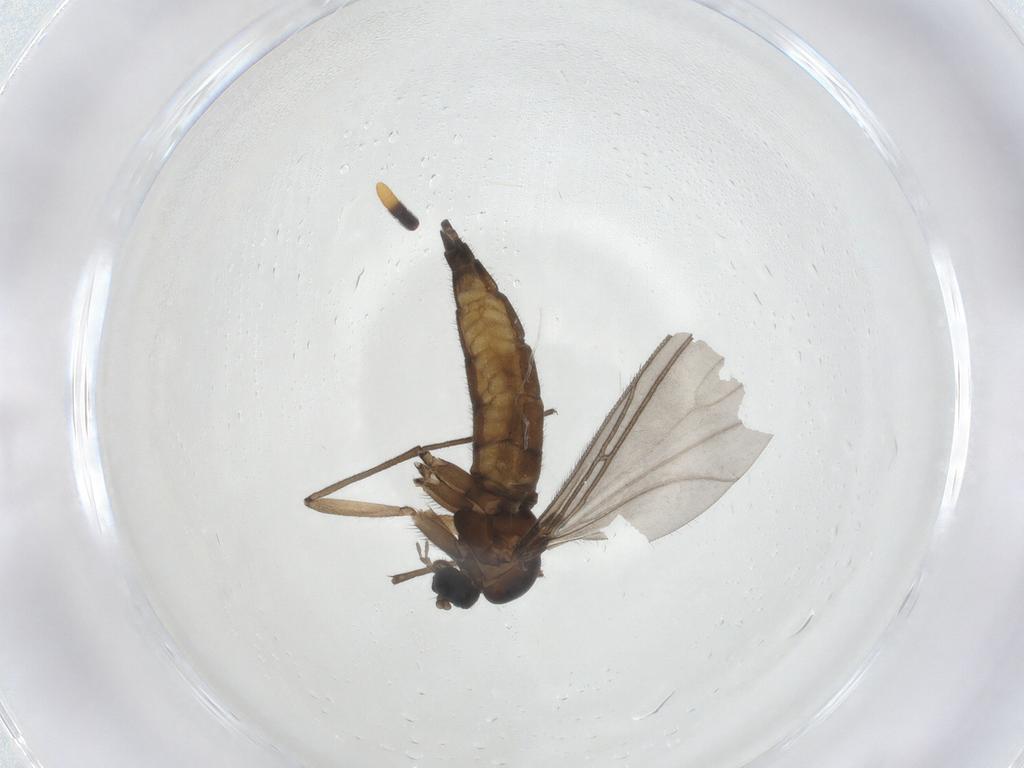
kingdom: Animalia
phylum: Arthropoda
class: Insecta
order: Diptera
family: Sciaridae
